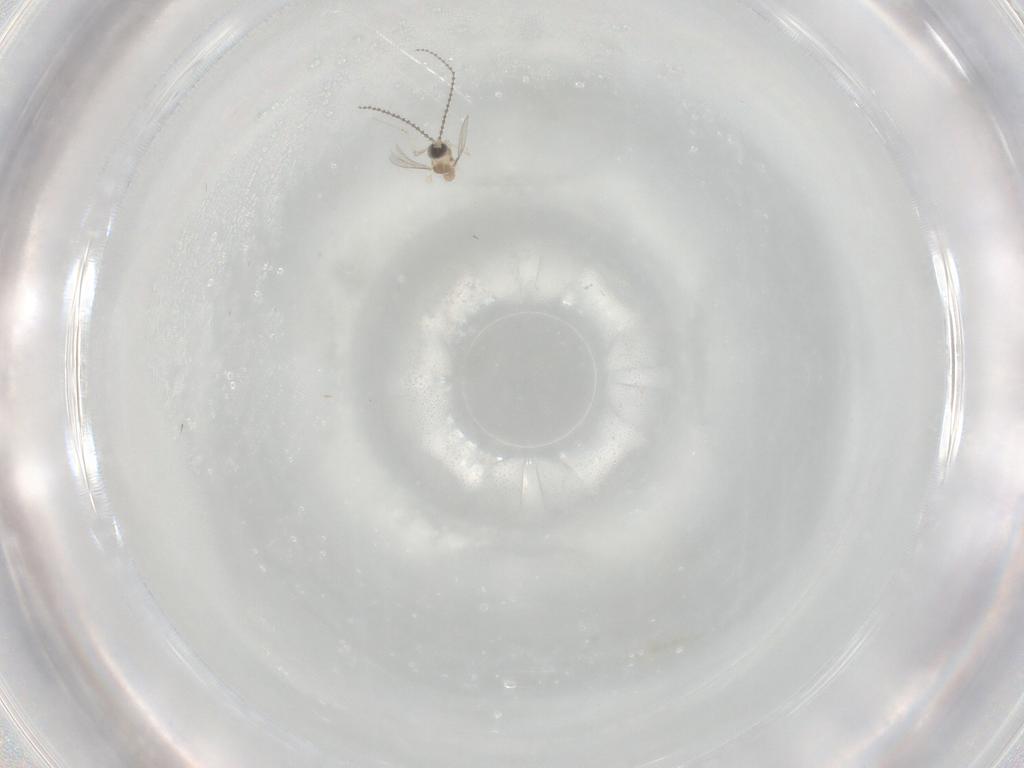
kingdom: Animalia
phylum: Arthropoda
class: Insecta
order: Diptera
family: Cecidomyiidae
